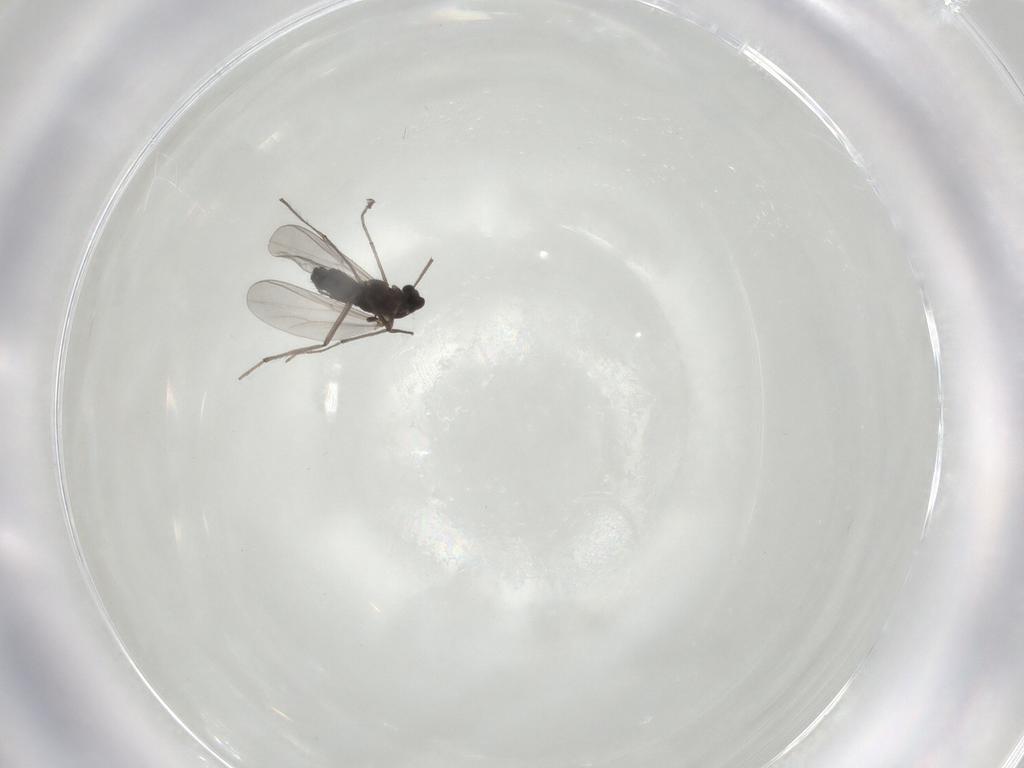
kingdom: Animalia
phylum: Arthropoda
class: Insecta
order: Diptera
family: Chironomidae
